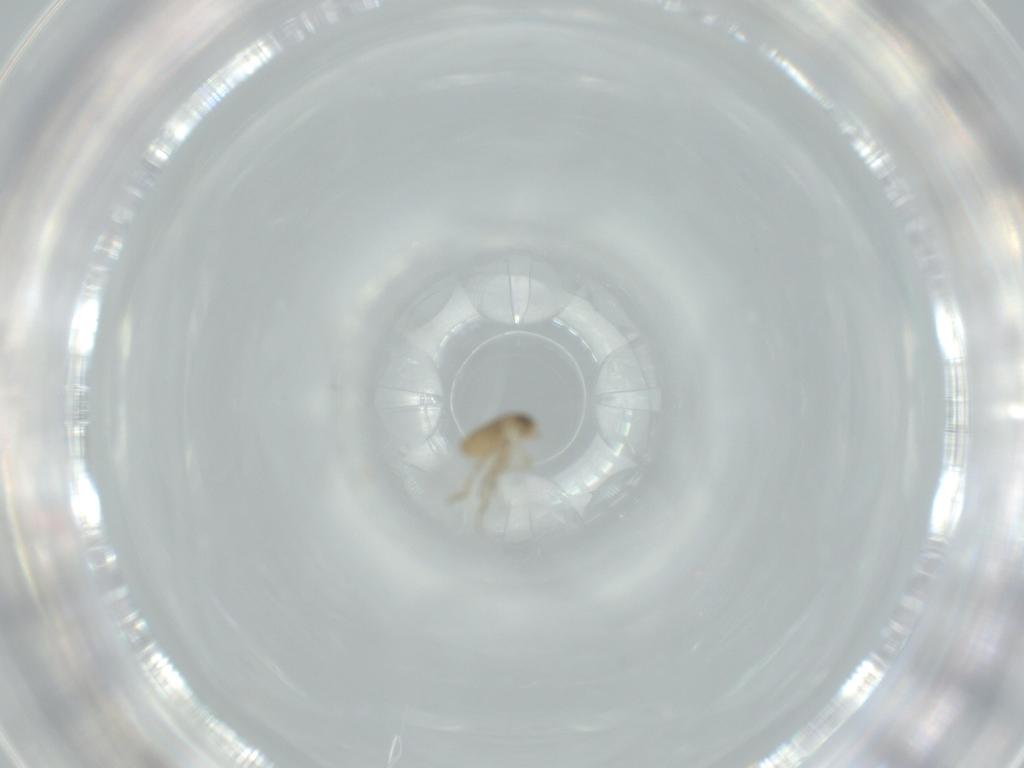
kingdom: Animalia
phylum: Arthropoda
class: Insecta
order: Diptera
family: Phoridae
